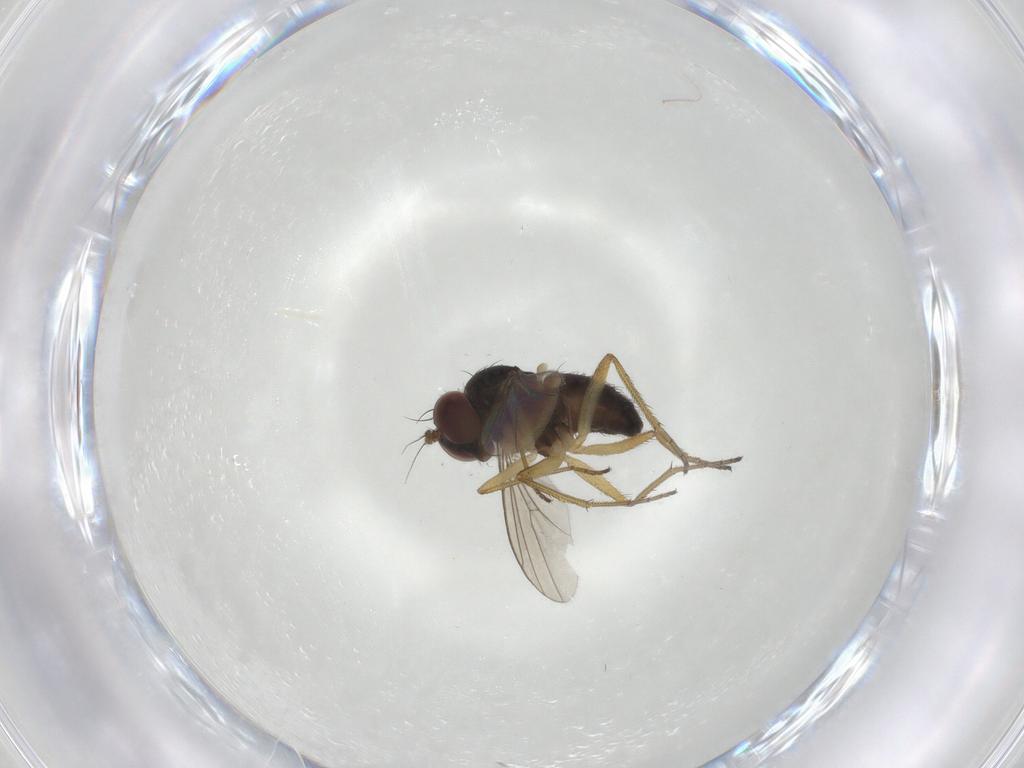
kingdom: Animalia
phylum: Arthropoda
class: Insecta
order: Diptera
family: Dolichopodidae
